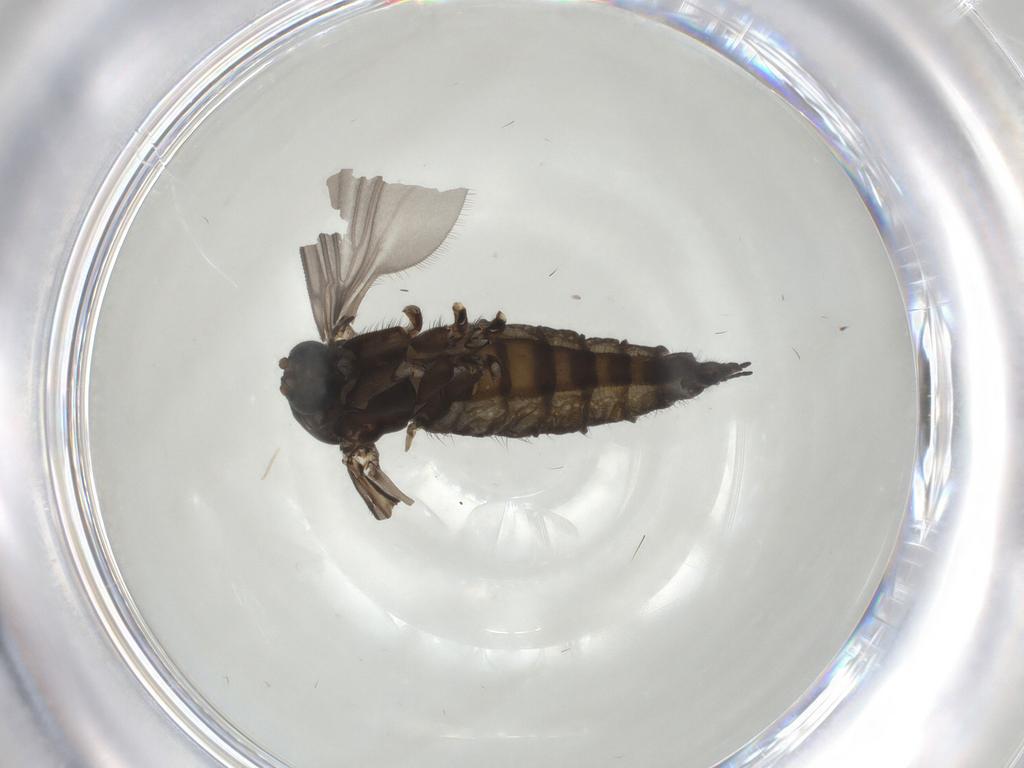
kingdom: Animalia
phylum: Arthropoda
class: Insecta
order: Diptera
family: Sciaridae
